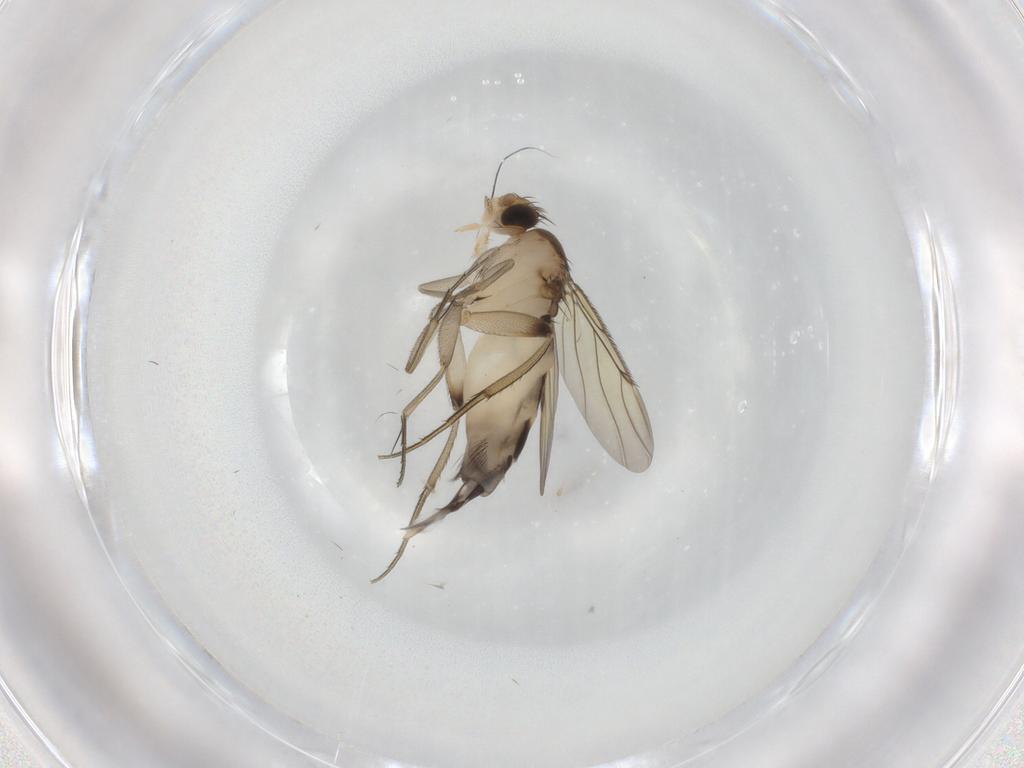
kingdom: Animalia
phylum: Arthropoda
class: Insecta
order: Diptera
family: Phoridae
